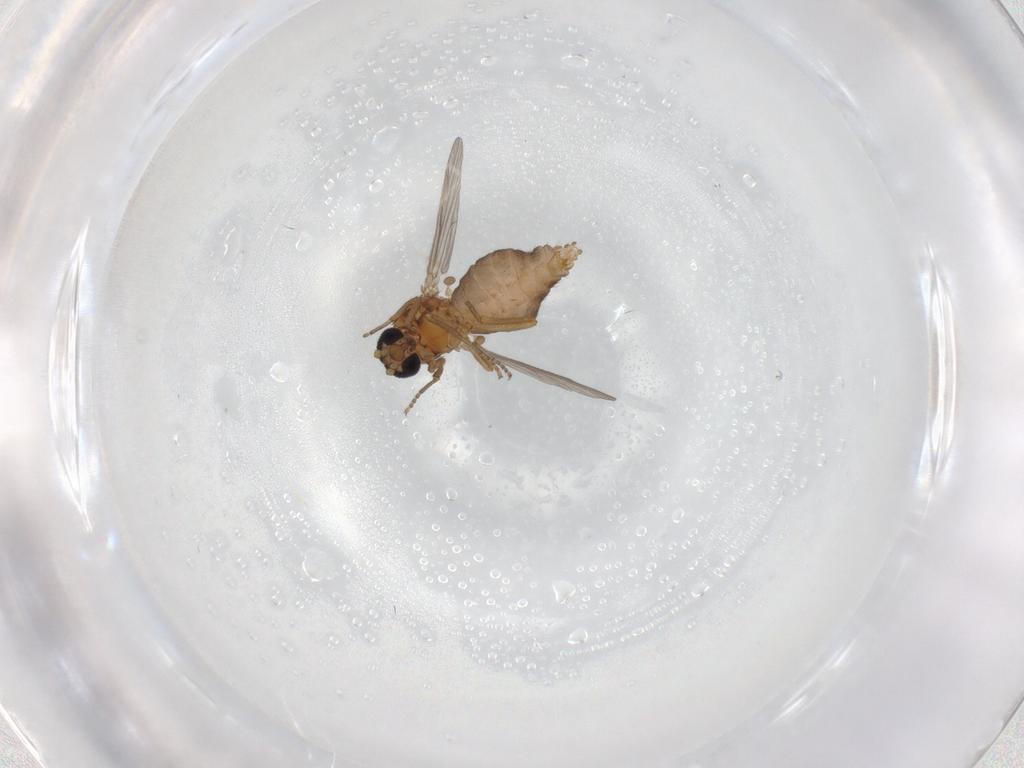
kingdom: Animalia
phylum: Arthropoda
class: Insecta
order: Diptera
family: Ceratopogonidae
